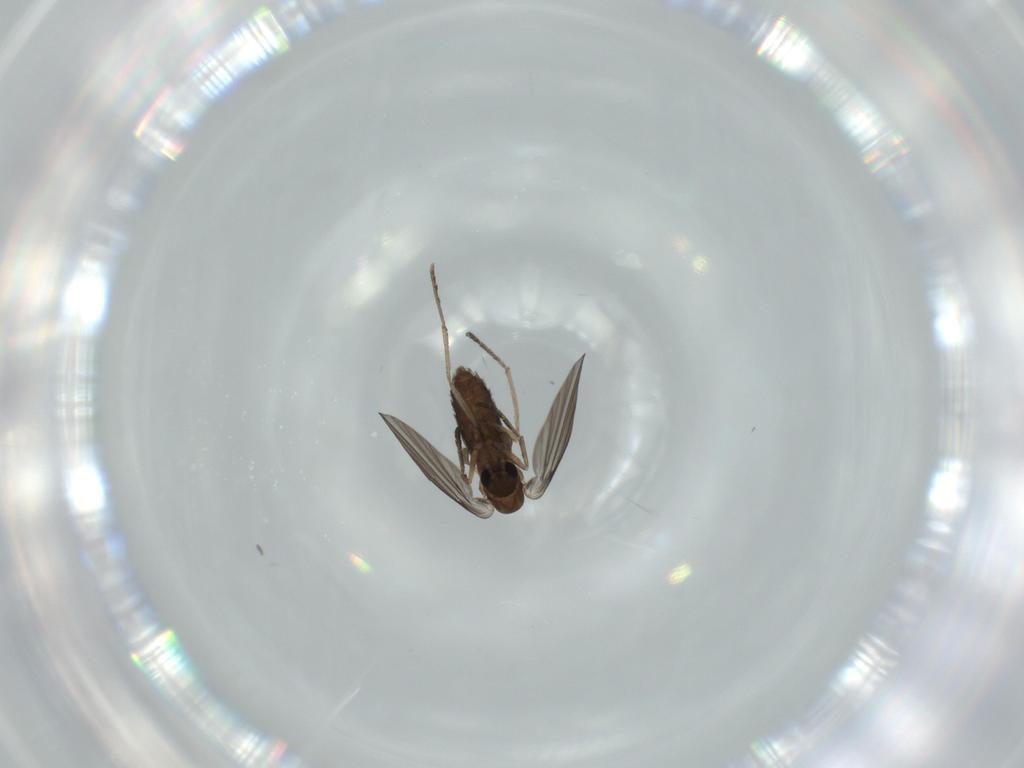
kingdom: Animalia
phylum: Arthropoda
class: Insecta
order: Diptera
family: Psychodidae
